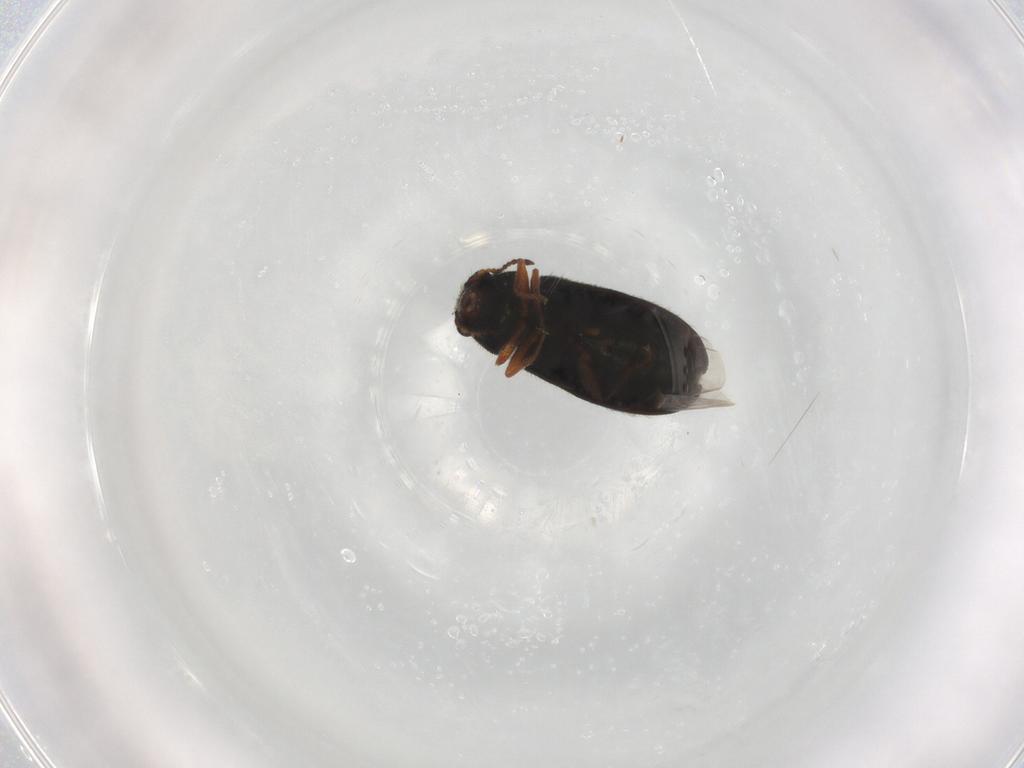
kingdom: Animalia
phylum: Arthropoda
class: Insecta
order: Coleoptera
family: Melyridae
